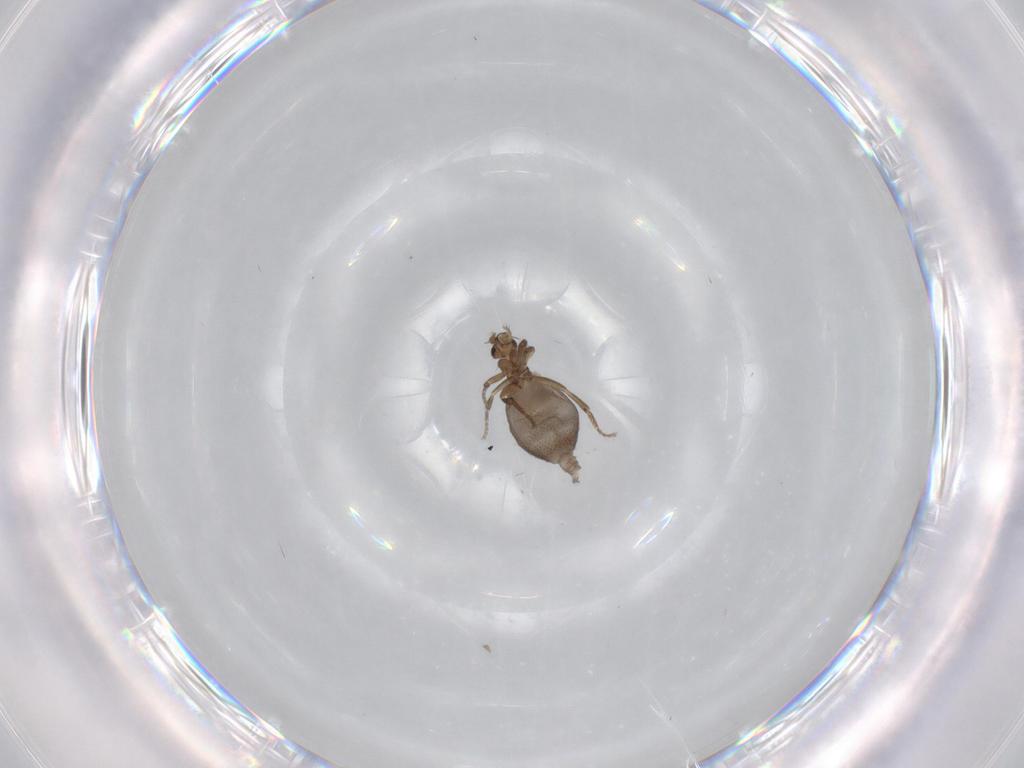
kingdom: Animalia
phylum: Arthropoda
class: Insecta
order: Diptera
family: Ceratopogonidae
